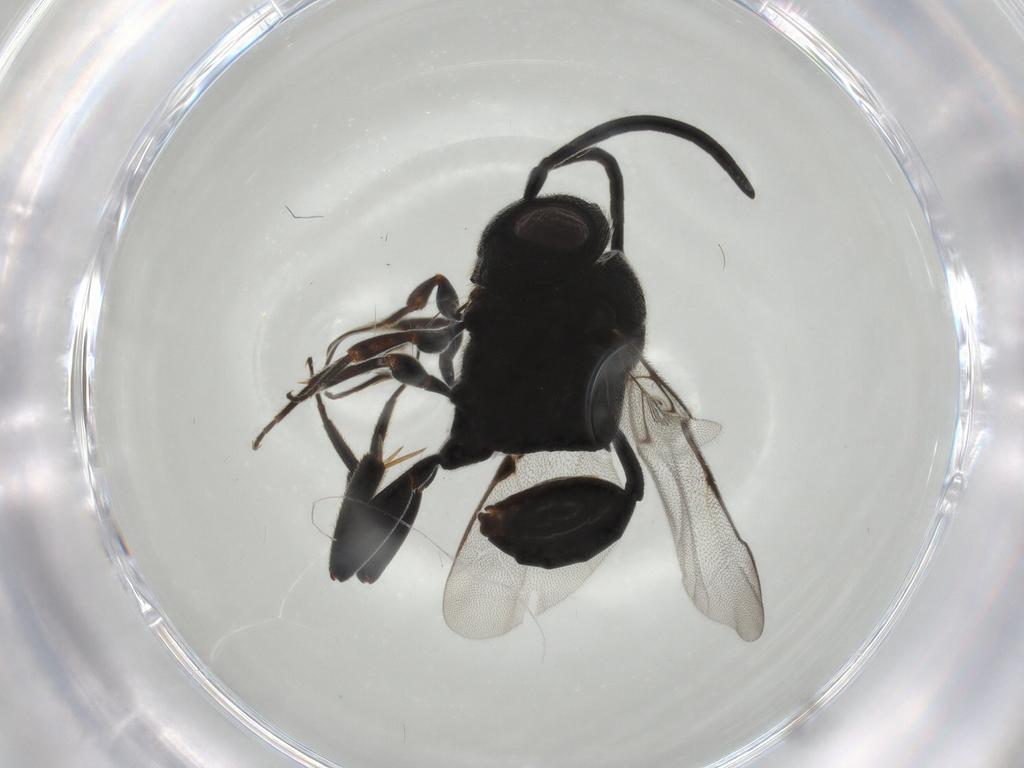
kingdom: Animalia
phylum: Arthropoda
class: Insecta
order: Hymenoptera
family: Evaniidae
